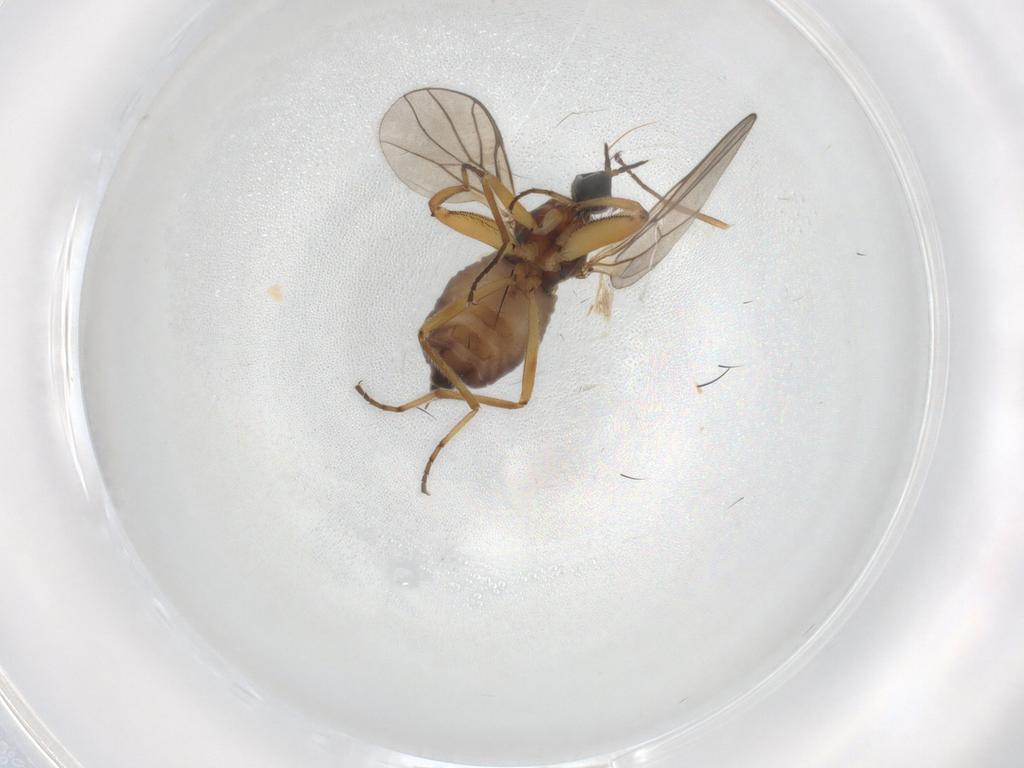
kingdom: Animalia
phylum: Arthropoda
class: Insecta
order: Diptera
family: Hybotidae
